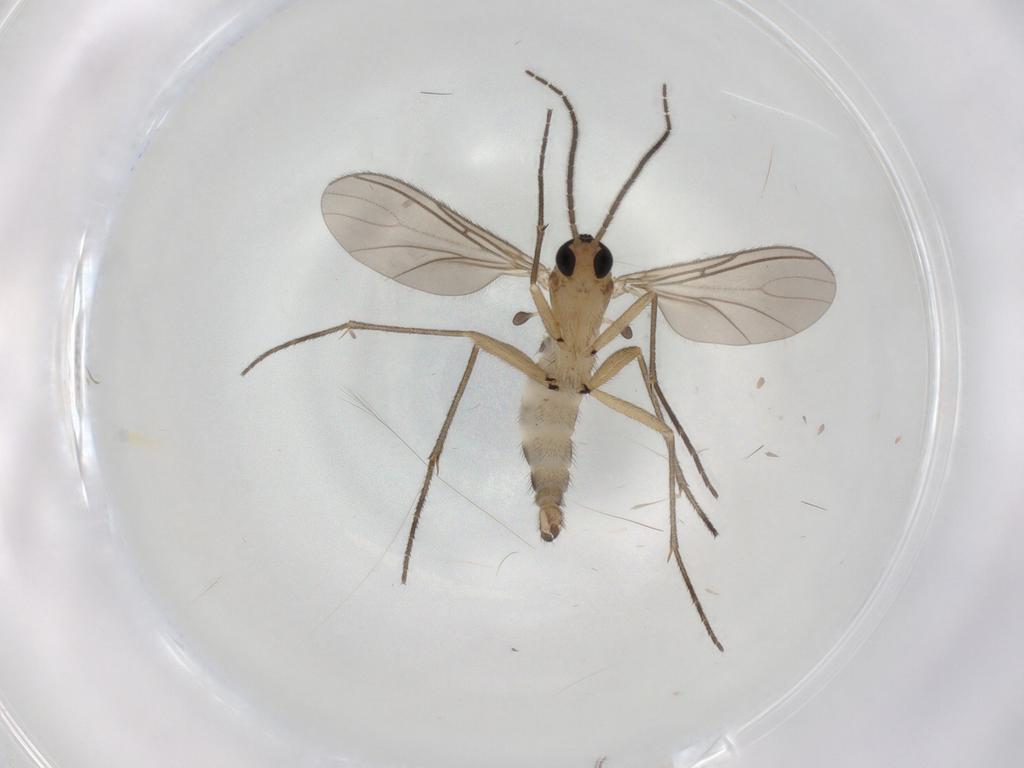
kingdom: Animalia
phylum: Arthropoda
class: Insecta
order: Diptera
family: Sciaridae
